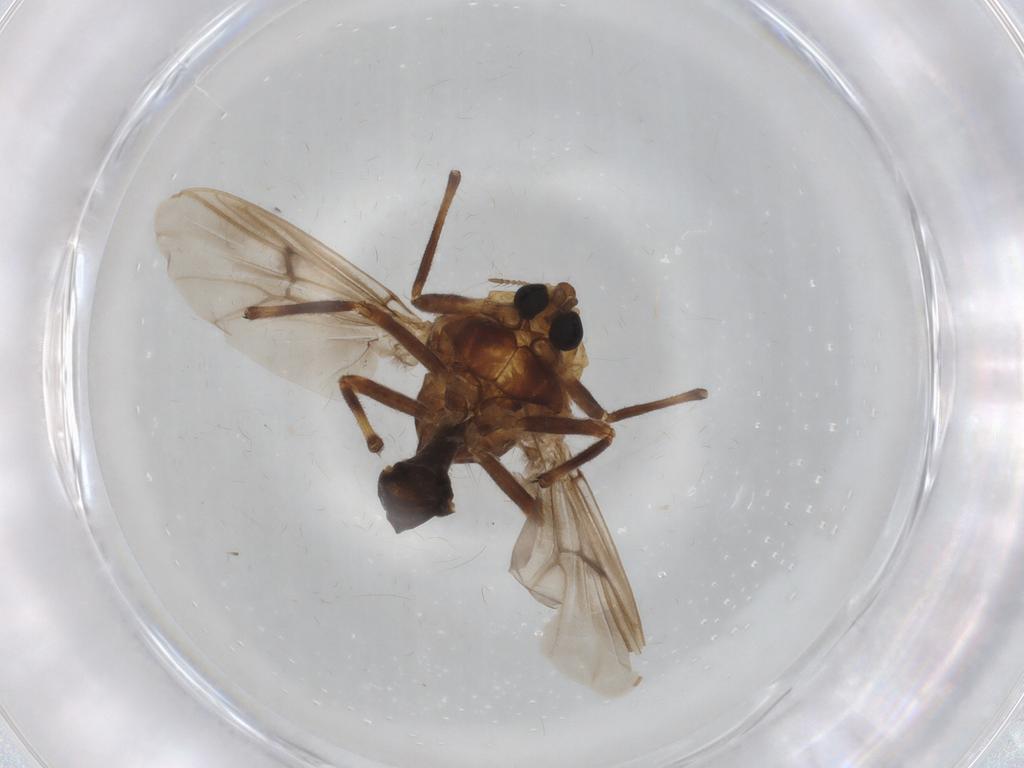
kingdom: Animalia
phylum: Arthropoda
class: Insecta
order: Diptera
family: Chironomidae
